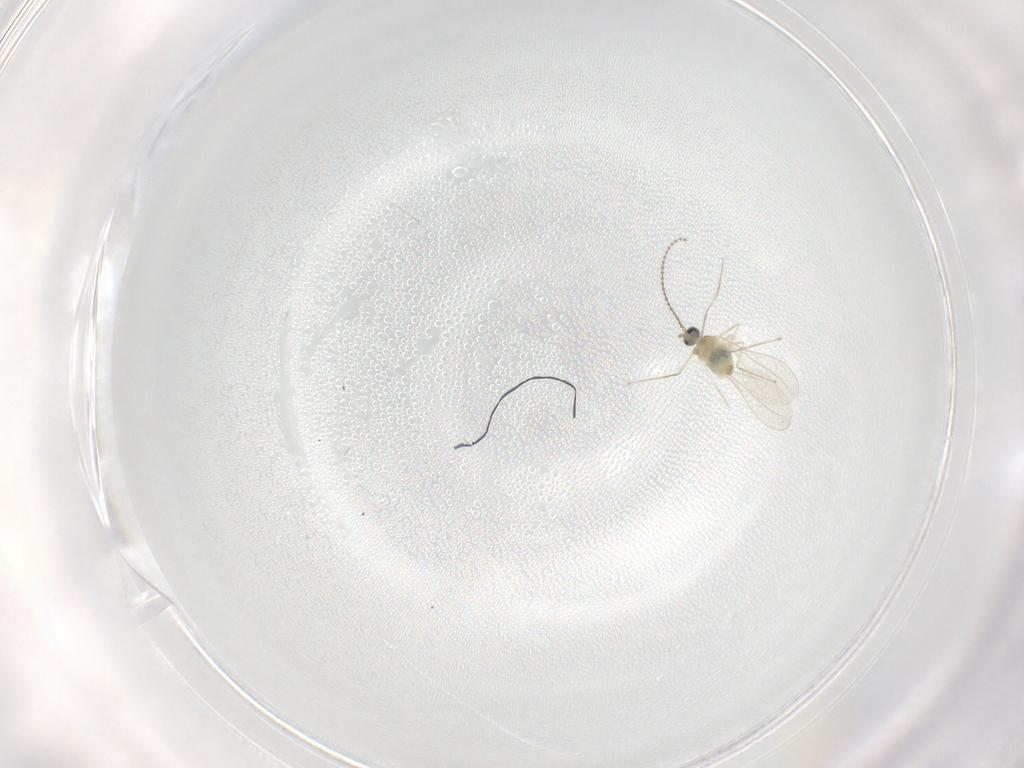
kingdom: Animalia
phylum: Arthropoda
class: Insecta
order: Diptera
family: Cecidomyiidae
